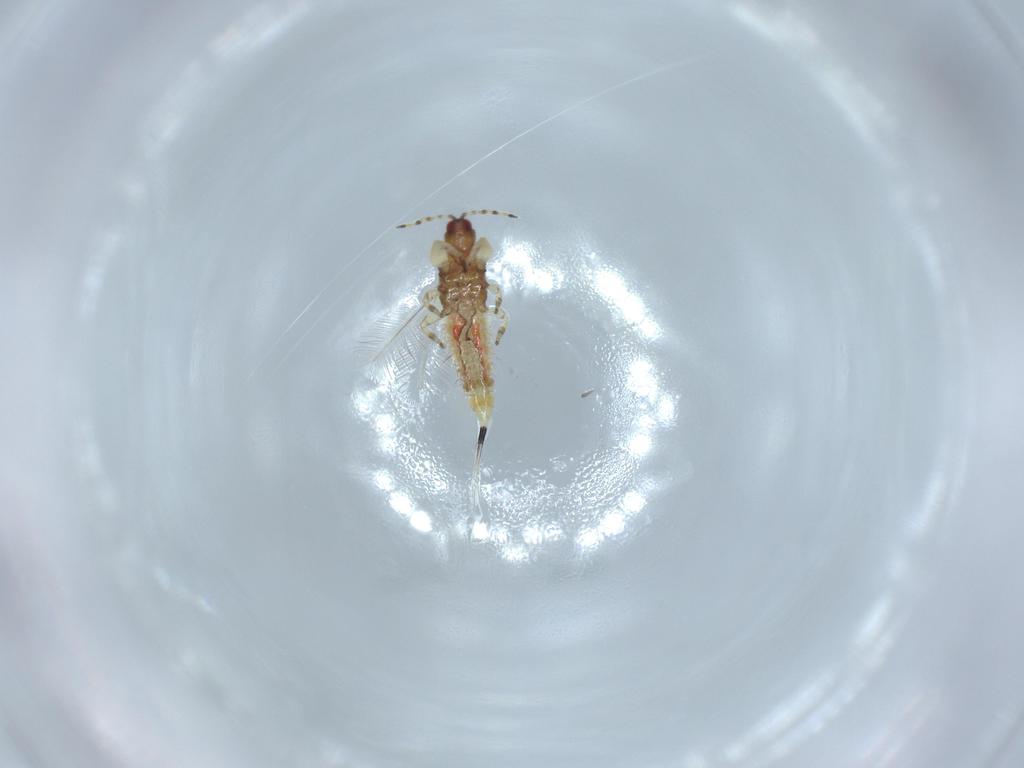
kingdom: Animalia
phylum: Arthropoda
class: Insecta
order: Thysanoptera
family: Phlaeothripidae
